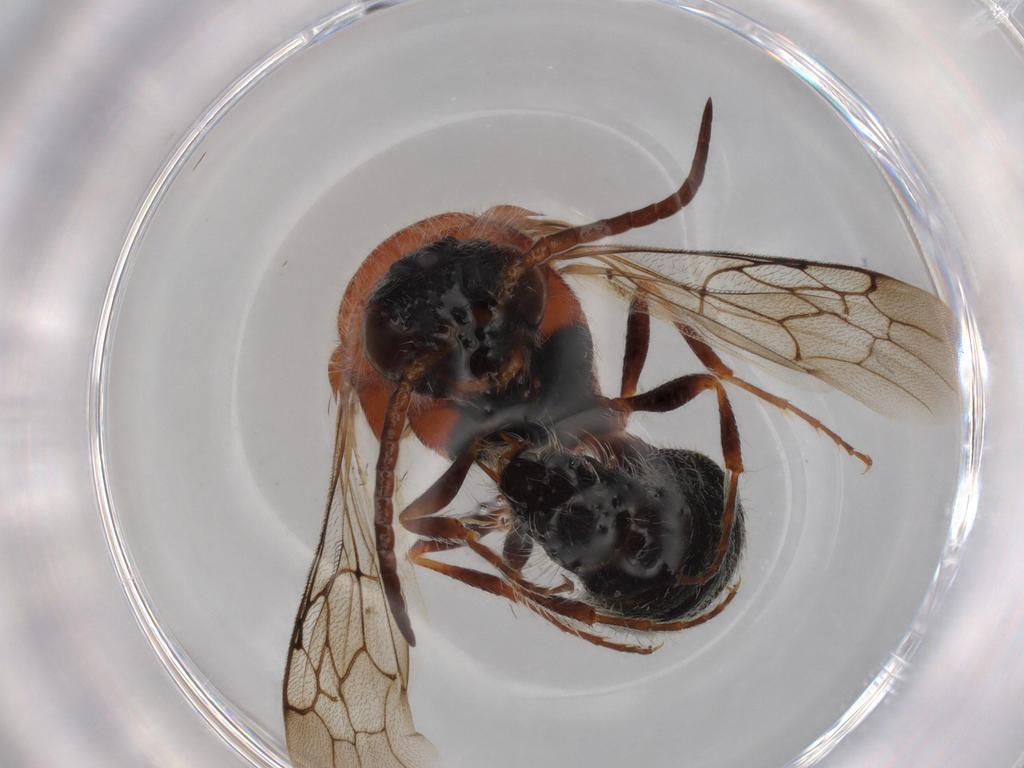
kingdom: Animalia
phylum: Arthropoda
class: Insecta
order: Hymenoptera
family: Mutillidae
